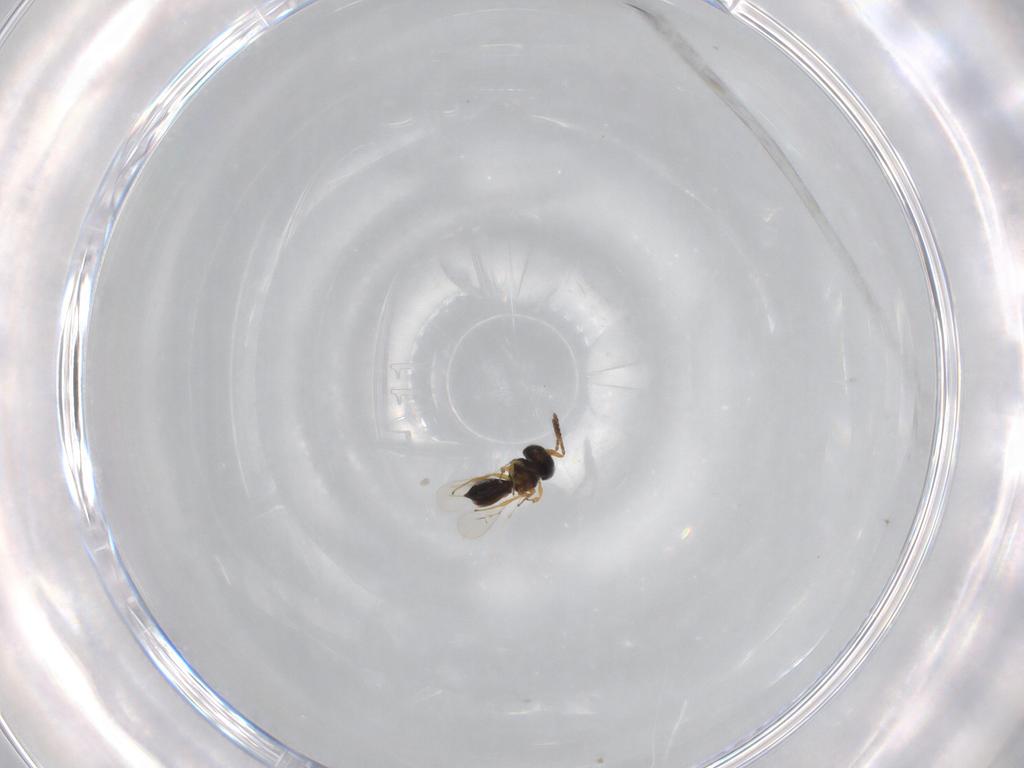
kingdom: Animalia
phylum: Arthropoda
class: Insecta
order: Hymenoptera
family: Scelionidae
